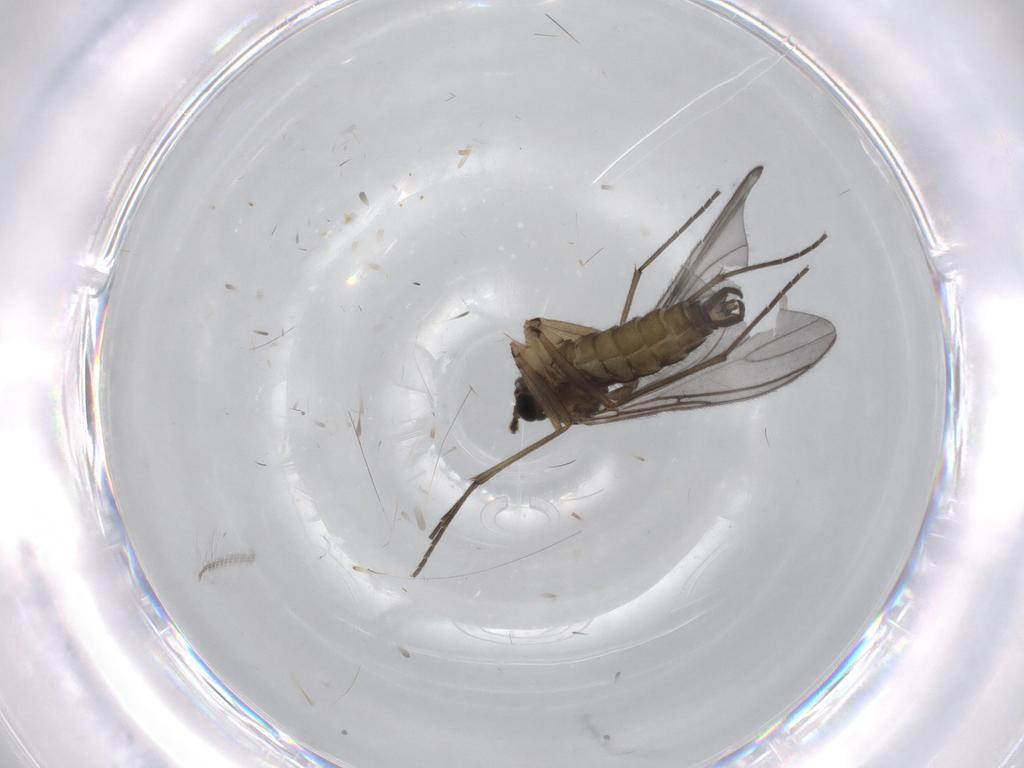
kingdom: Animalia
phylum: Arthropoda
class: Insecta
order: Diptera
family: Chironomidae
